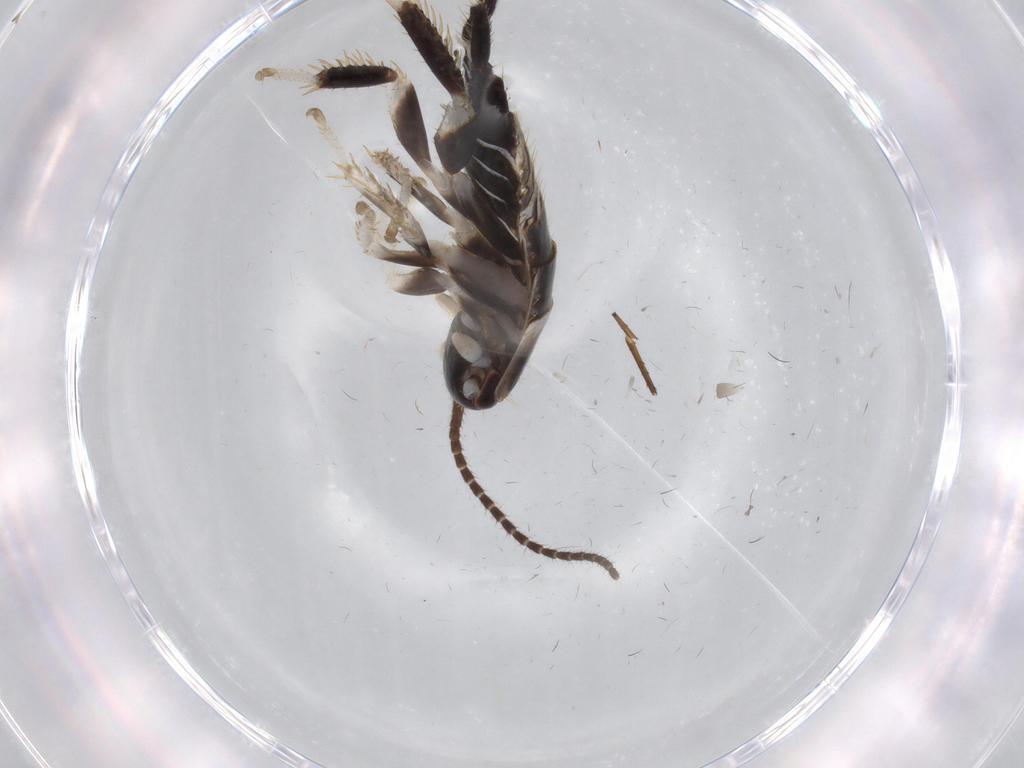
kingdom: Animalia
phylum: Arthropoda
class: Insecta
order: Blattodea
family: Ectobiidae
